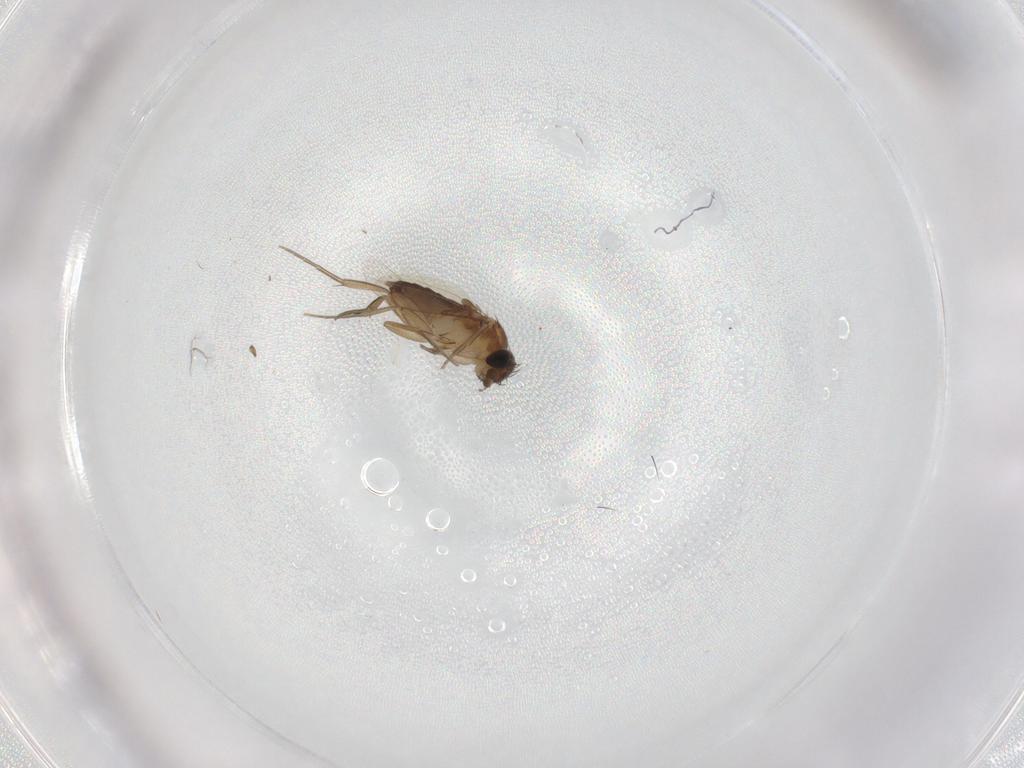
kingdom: Animalia
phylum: Arthropoda
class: Insecta
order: Diptera
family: Phoridae
